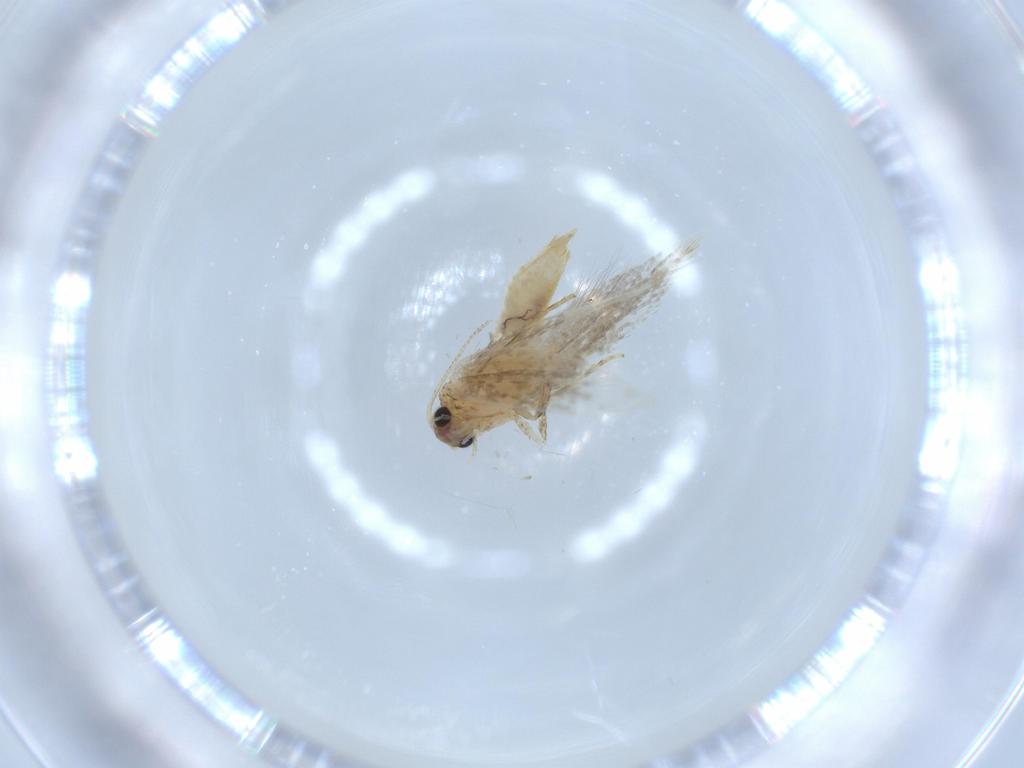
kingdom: Animalia
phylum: Arthropoda
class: Insecta
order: Lepidoptera
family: Tineidae
